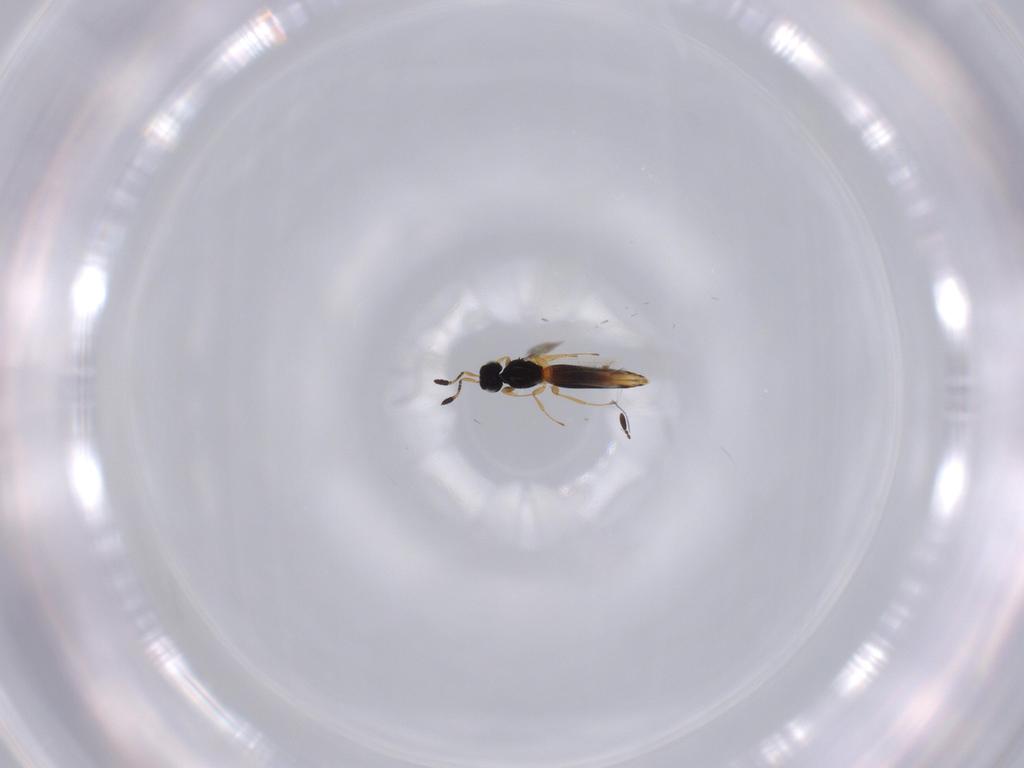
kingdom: Animalia
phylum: Arthropoda
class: Insecta
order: Hymenoptera
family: Scelionidae
